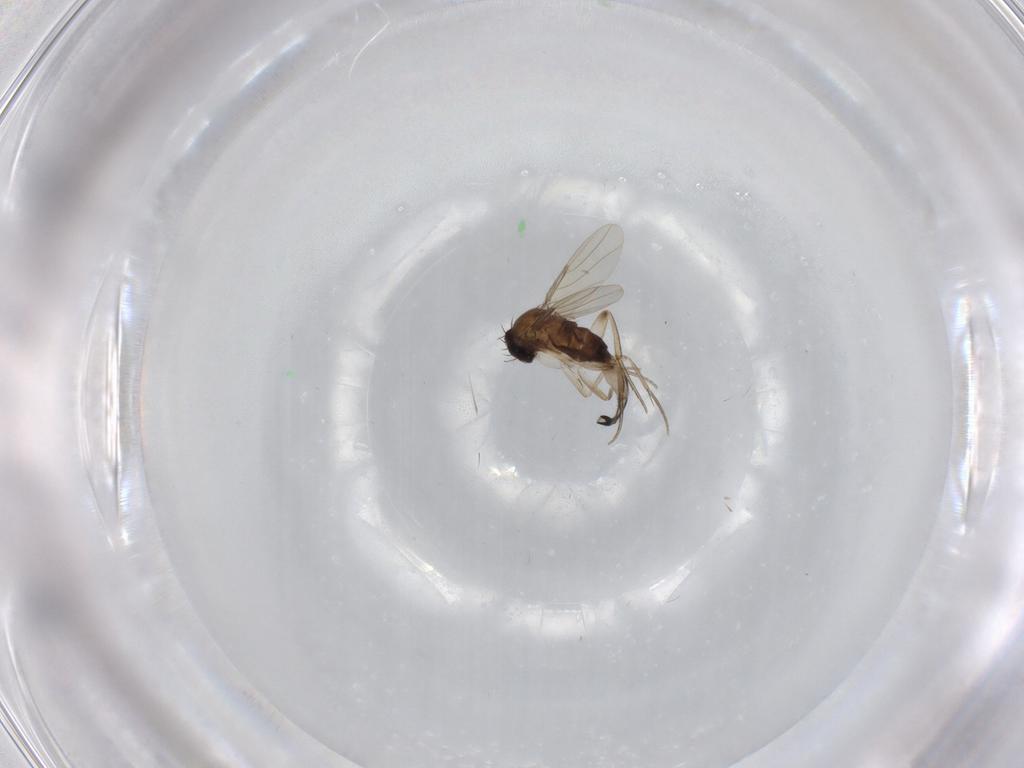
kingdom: Animalia
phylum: Arthropoda
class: Insecta
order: Diptera
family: Phoridae
